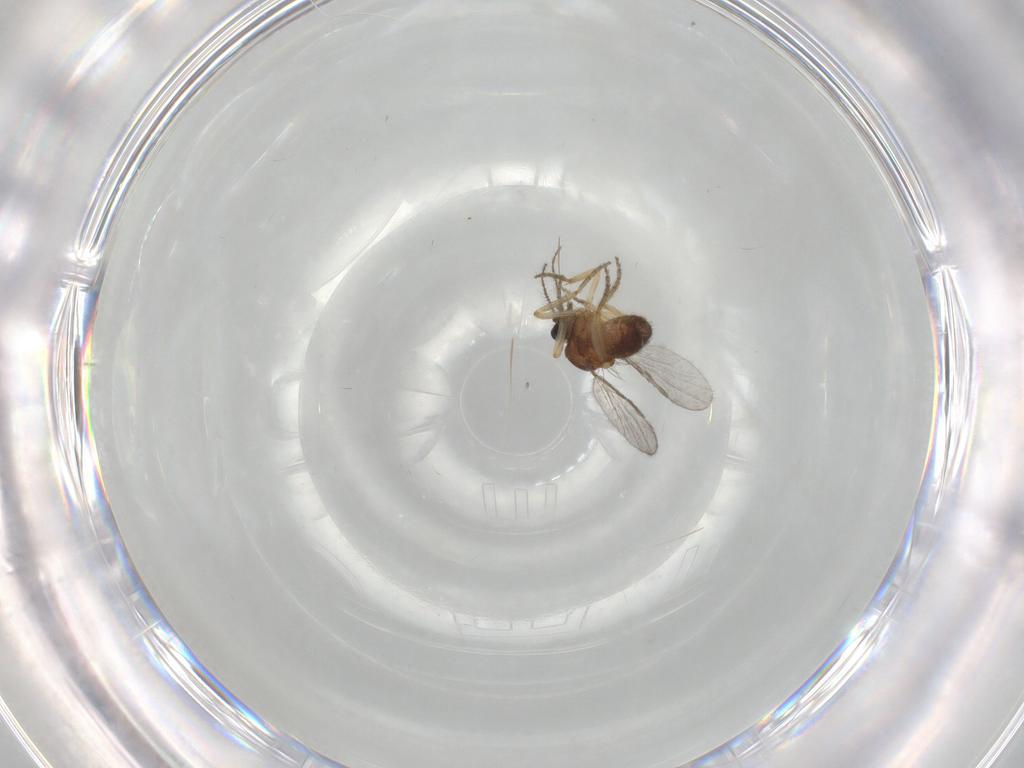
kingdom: Animalia
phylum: Arthropoda
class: Insecta
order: Diptera
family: Ceratopogonidae
